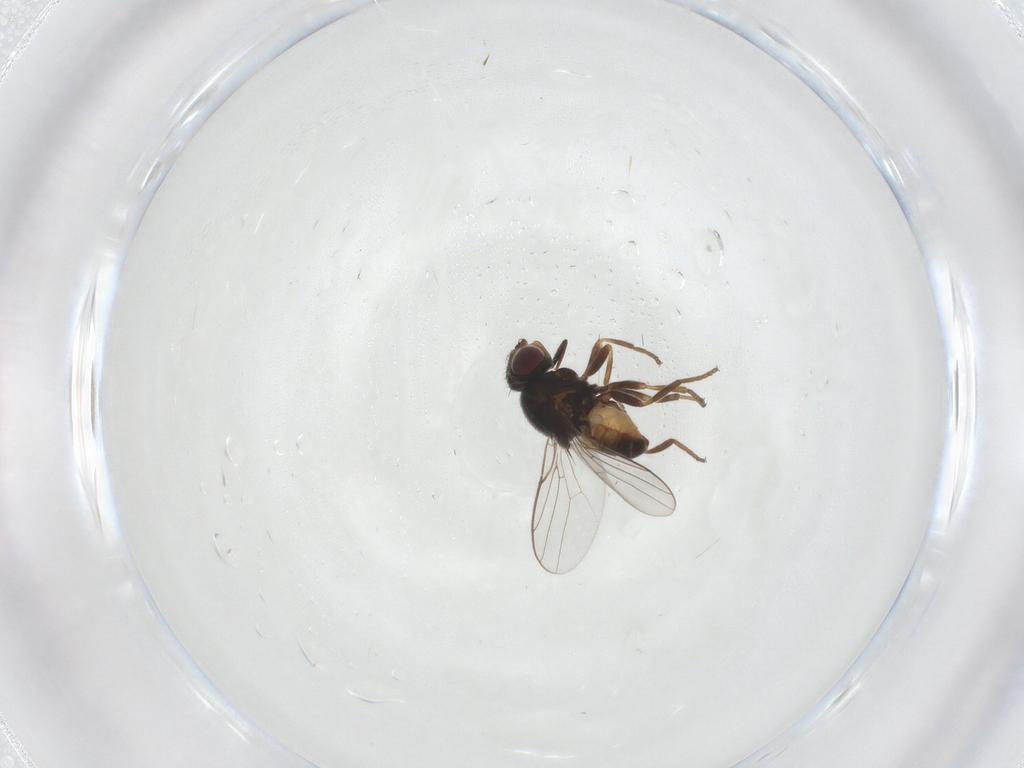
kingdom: Animalia
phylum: Arthropoda
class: Insecta
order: Diptera
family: Chloropidae
